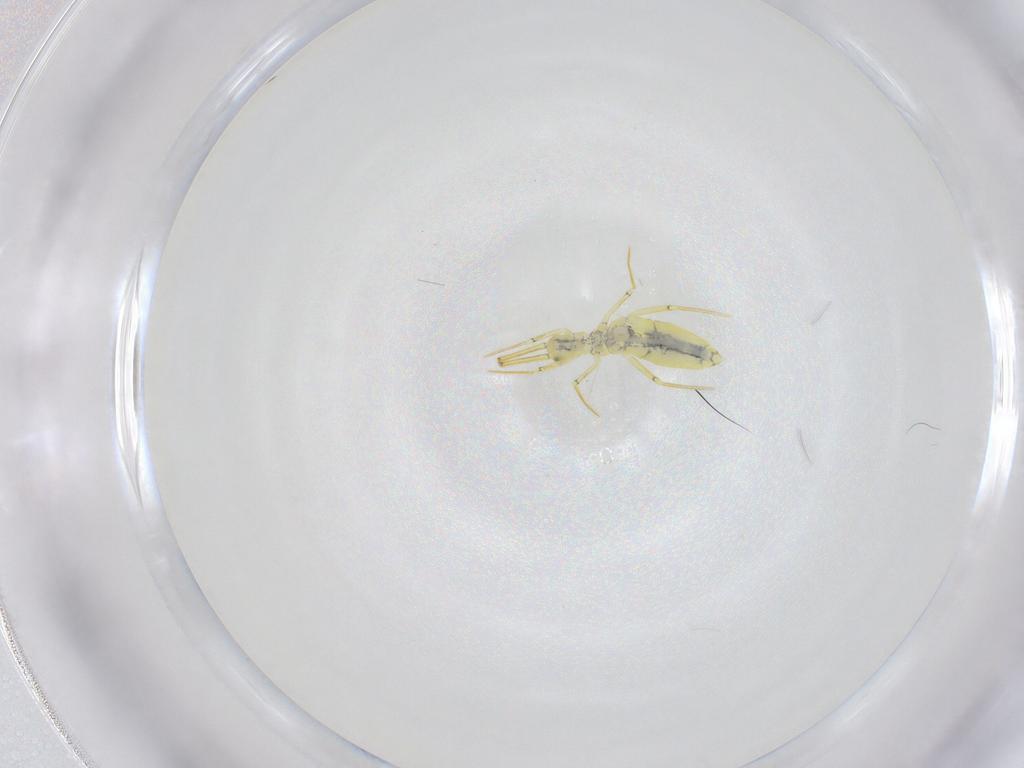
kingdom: Animalia
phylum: Arthropoda
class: Collembola
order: Entomobryomorpha
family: Entomobryidae
